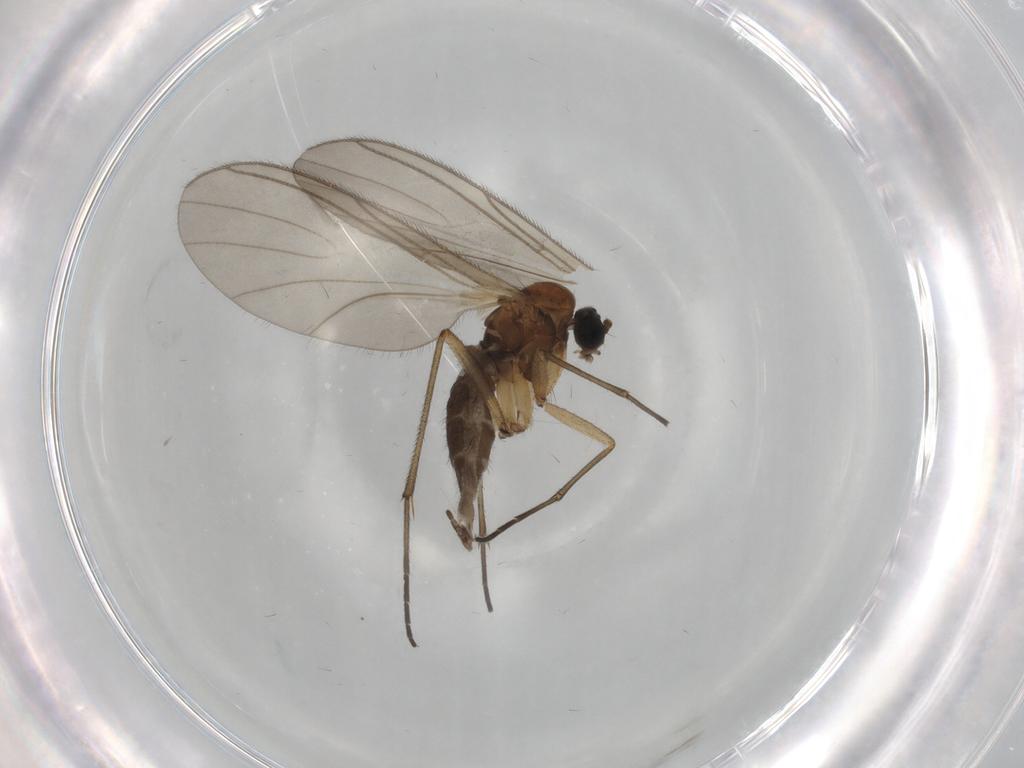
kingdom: Animalia
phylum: Arthropoda
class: Insecta
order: Diptera
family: Sciaridae
